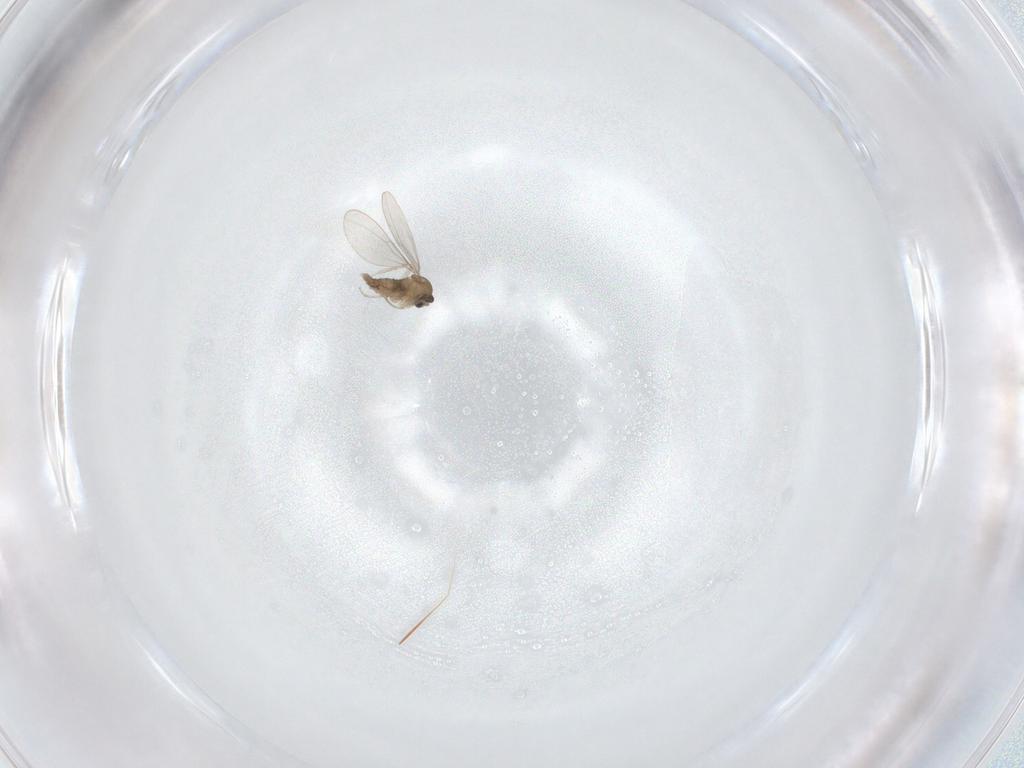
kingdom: Animalia
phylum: Arthropoda
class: Insecta
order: Diptera
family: Cecidomyiidae
